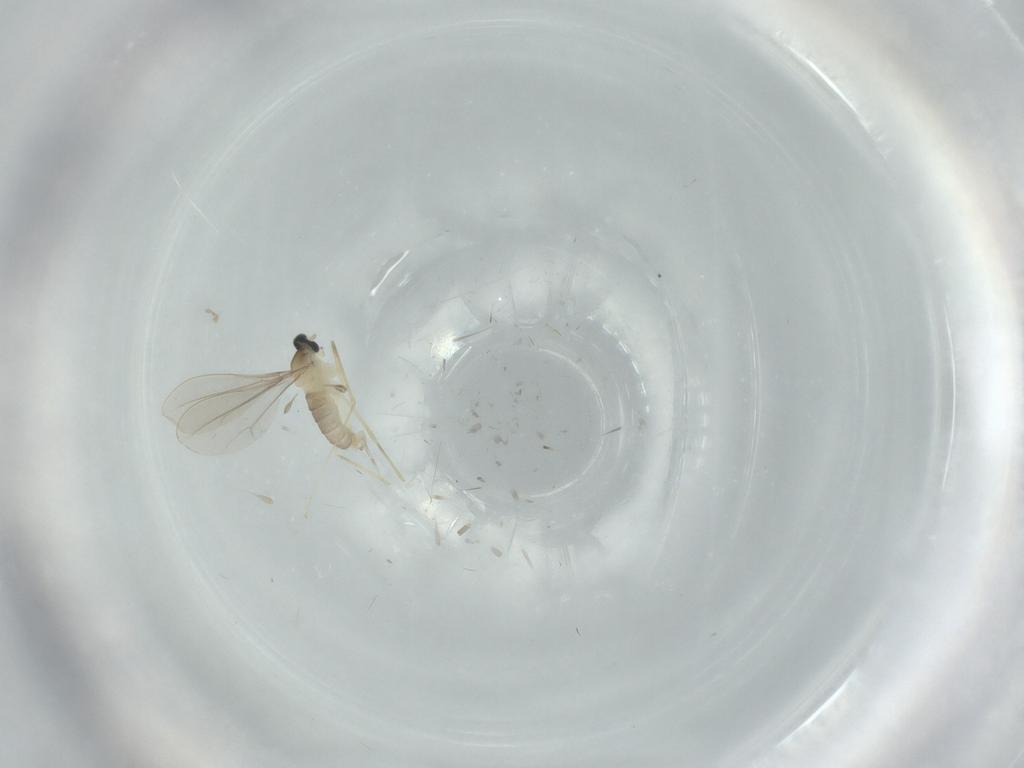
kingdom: Animalia
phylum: Arthropoda
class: Insecta
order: Diptera
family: Cecidomyiidae
